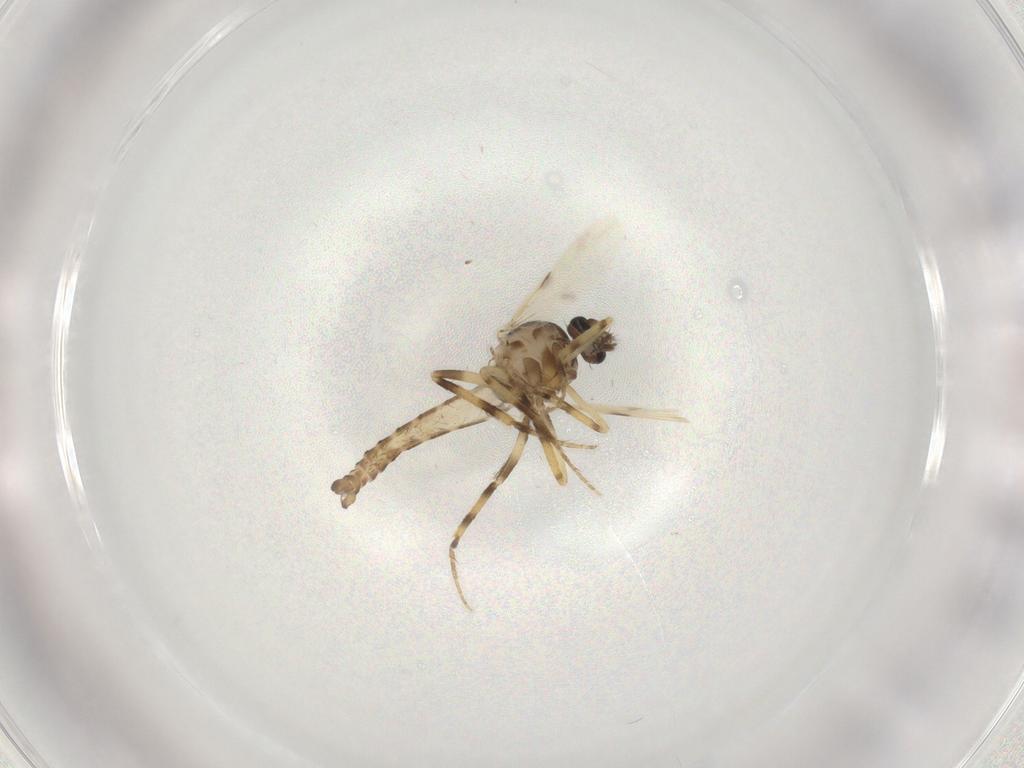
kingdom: Animalia
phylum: Arthropoda
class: Insecta
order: Diptera
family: Ceratopogonidae
